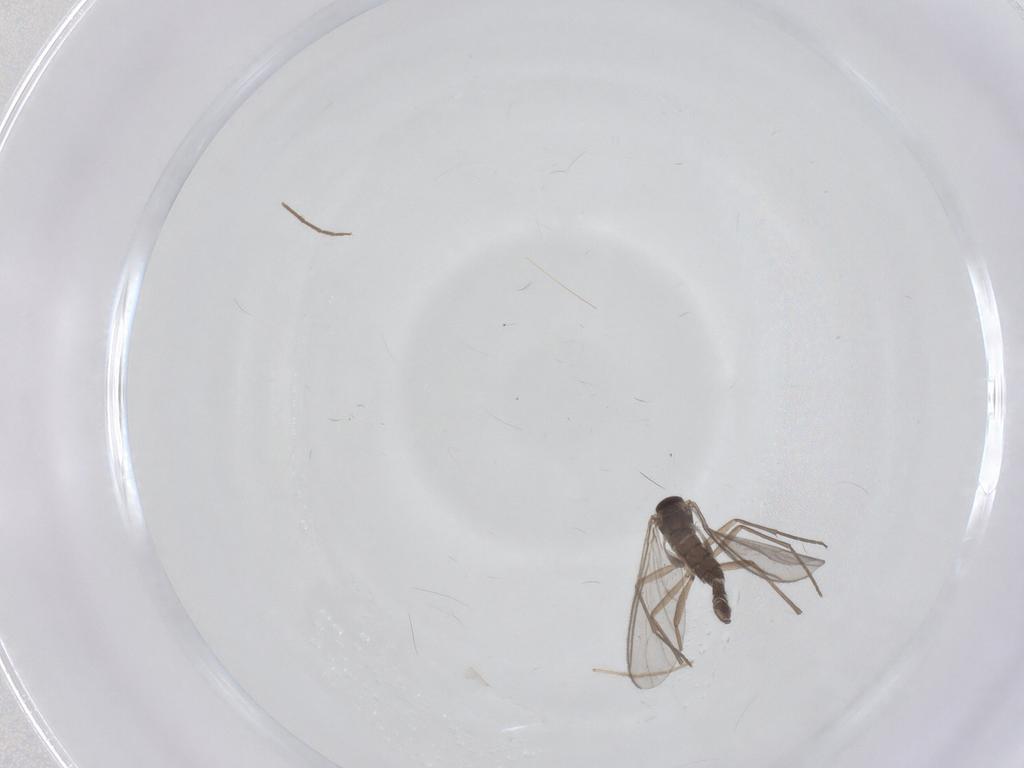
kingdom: Animalia
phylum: Arthropoda
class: Insecta
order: Diptera
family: Chironomidae
